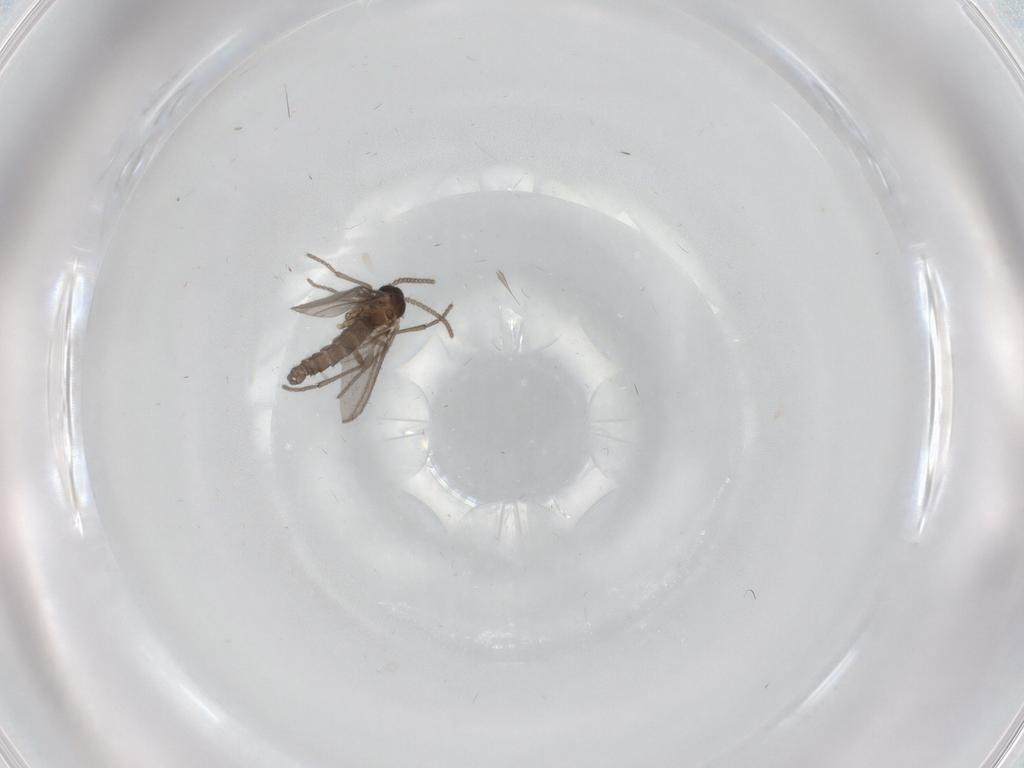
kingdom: Animalia
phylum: Arthropoda
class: Insecta
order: Diptera
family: Sciaridae
